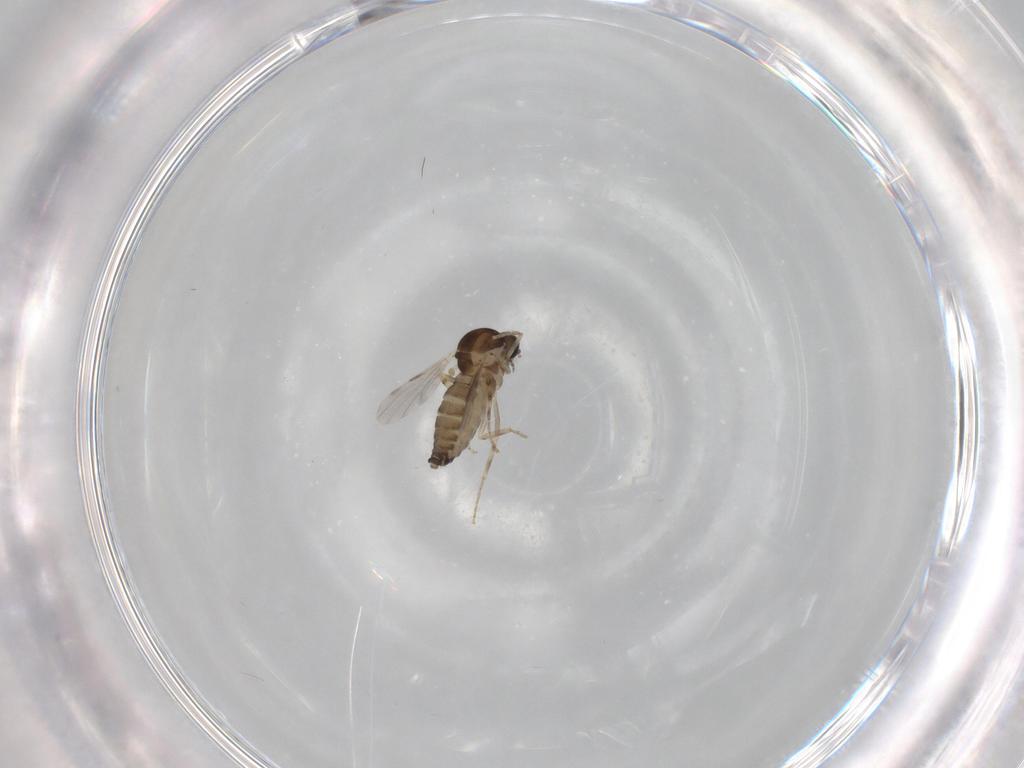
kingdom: Animalia
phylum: Arthropoda
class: Insecta
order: Diptera
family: Ceratopogonidae
